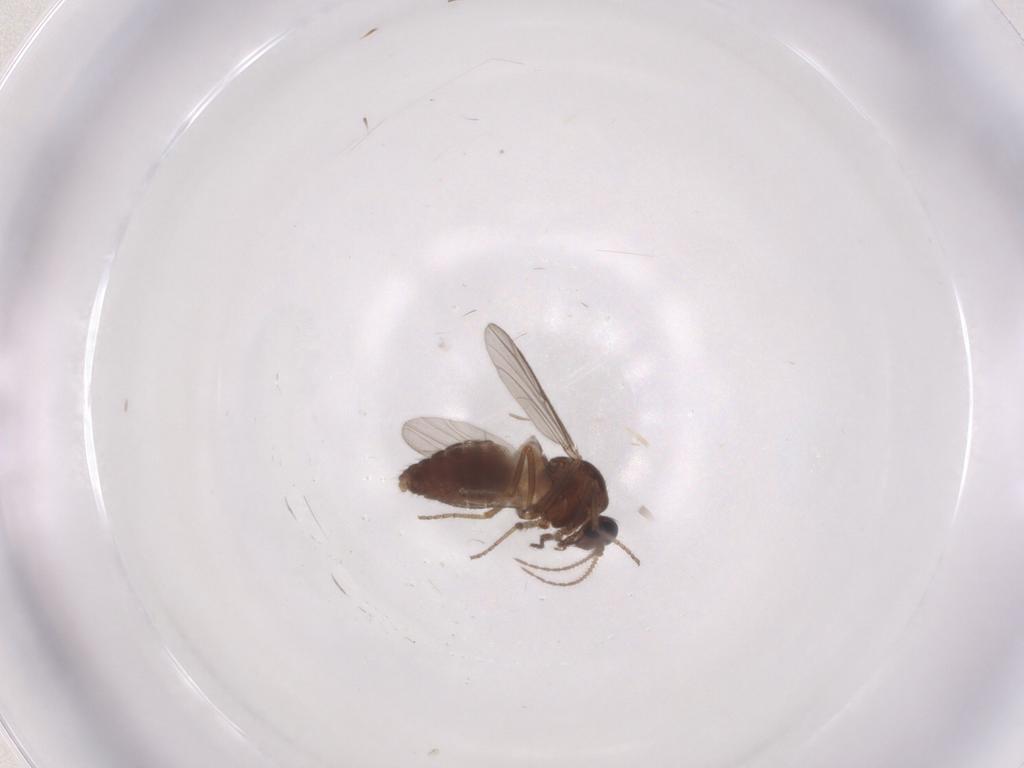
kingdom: Animalia
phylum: Arthropoda
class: Insecta
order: Diptera
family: Ceratopogonidae
